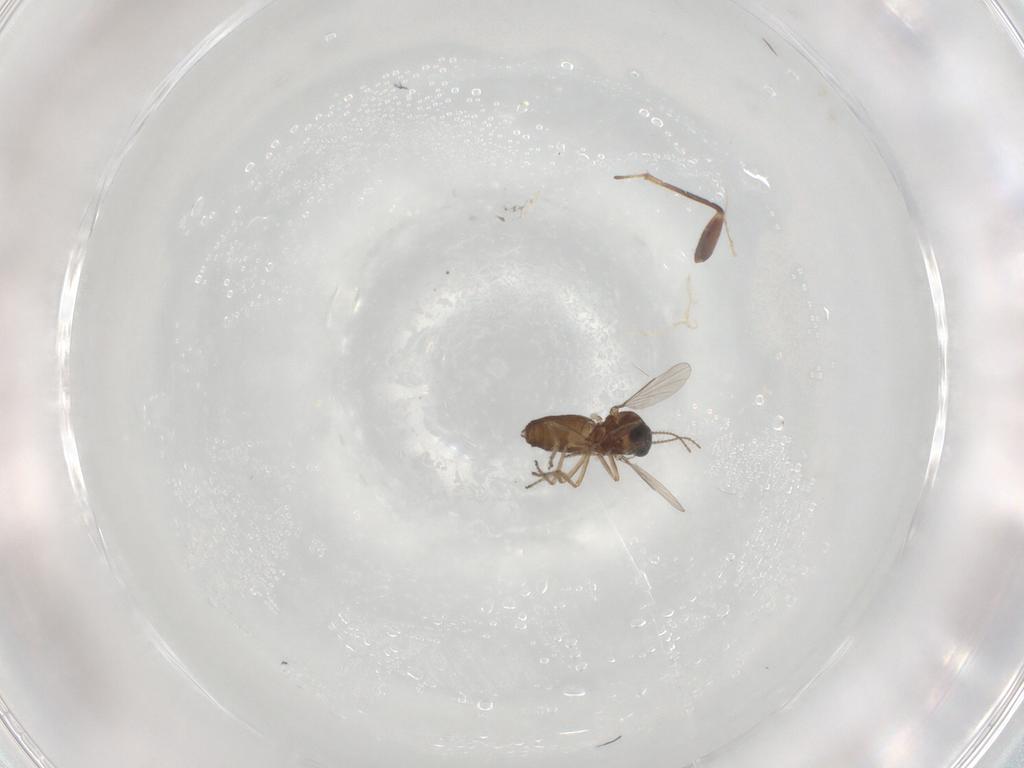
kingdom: Animalia
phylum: Arthropoda
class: Insecta
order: Diptera
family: Ceratopogonidae
